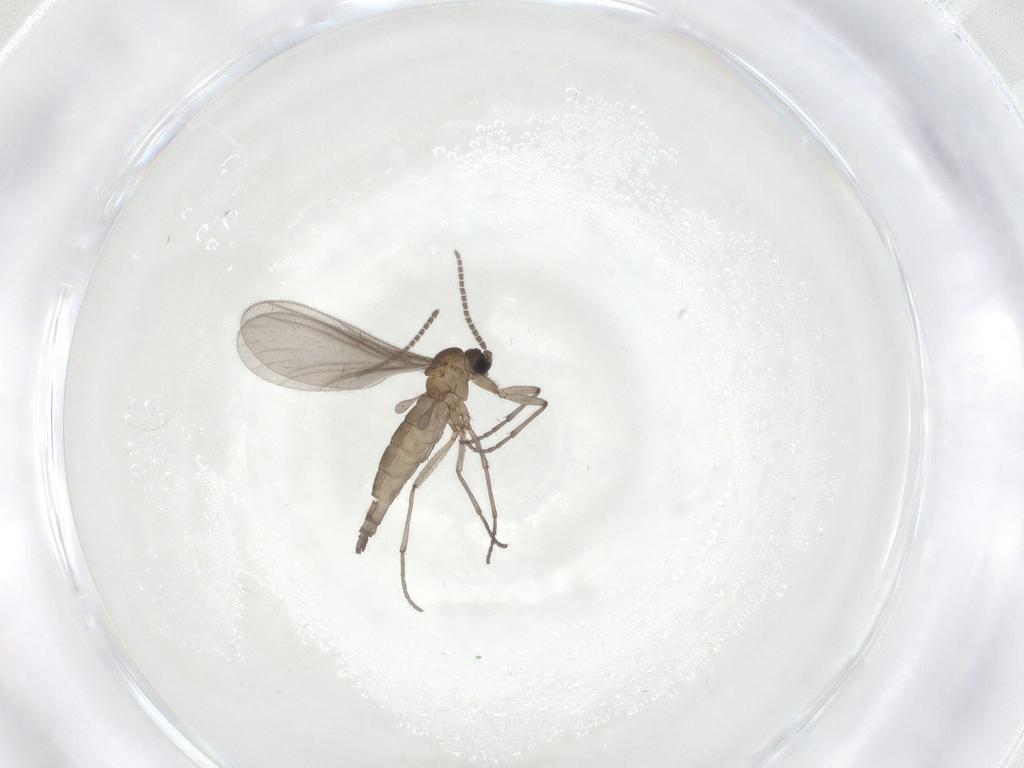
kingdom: Animalia
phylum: Arthropoda
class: Insecta
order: Diptera
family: Sciaridae
